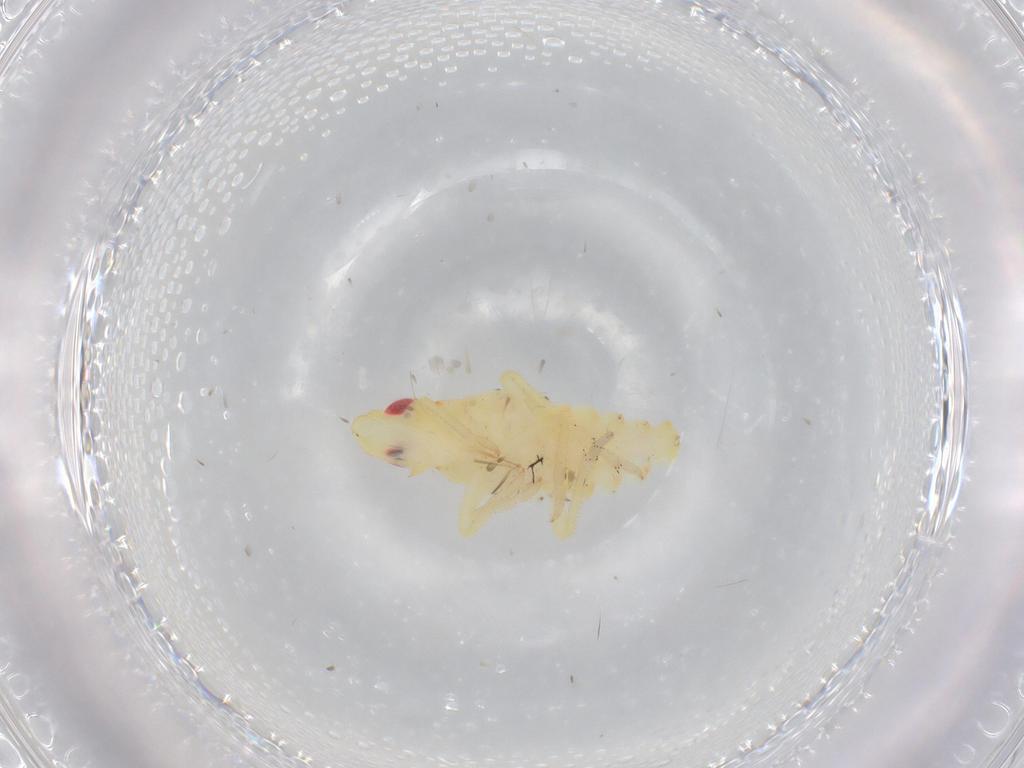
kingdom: Animalia
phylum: Arthropoda
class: Insecta
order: Hemiptera
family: Tropiduchidae
